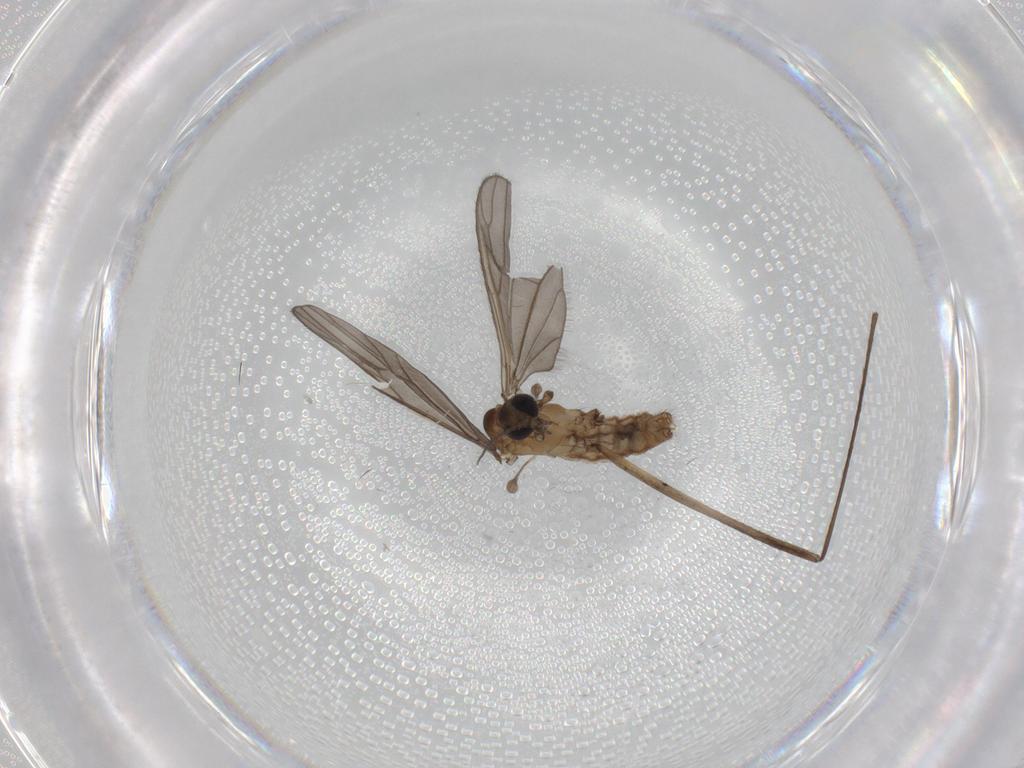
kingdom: Animalia
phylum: Arthropoda
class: Insecta
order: Diptera
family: Limoniidae
